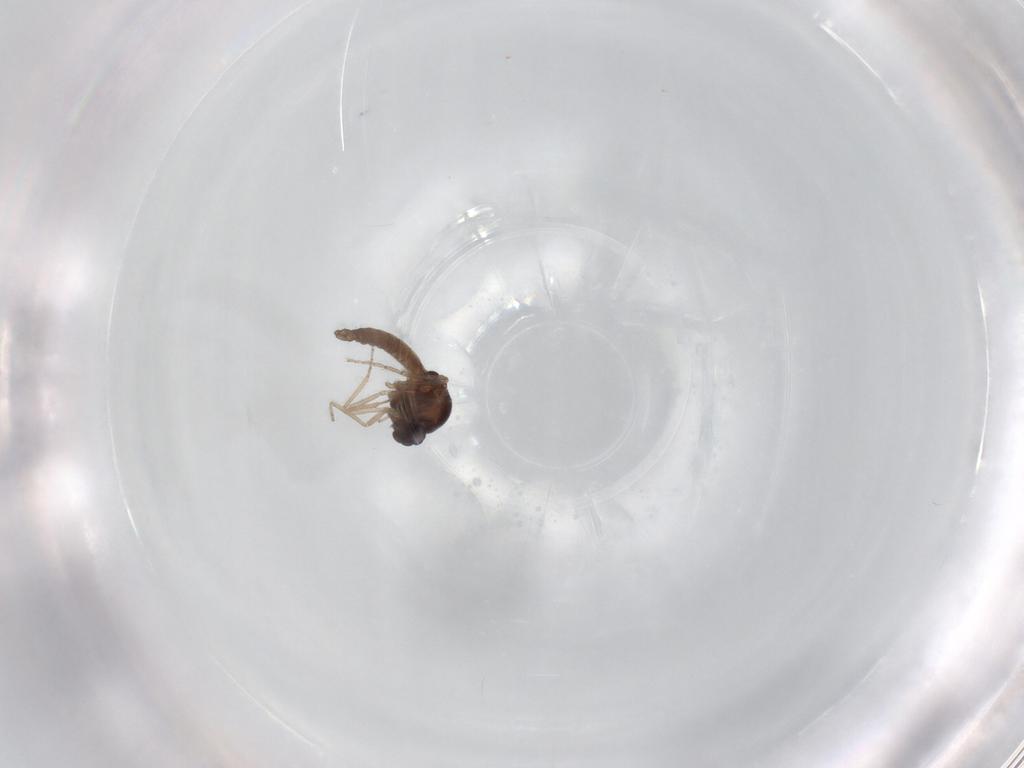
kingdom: Animalia
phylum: Arthropoda
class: Insecta
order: Diptera
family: Ceratopogonidae
